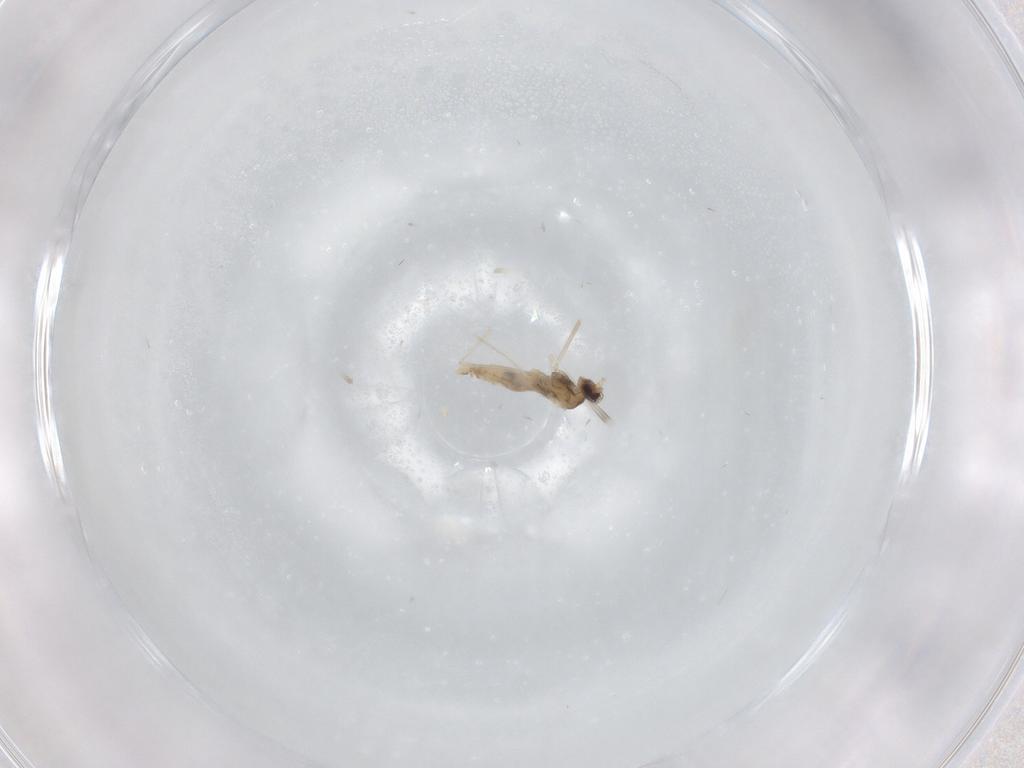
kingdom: Animalia
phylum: Arthropoda
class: Insecta
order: Diptera
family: Cecidomyiidae
